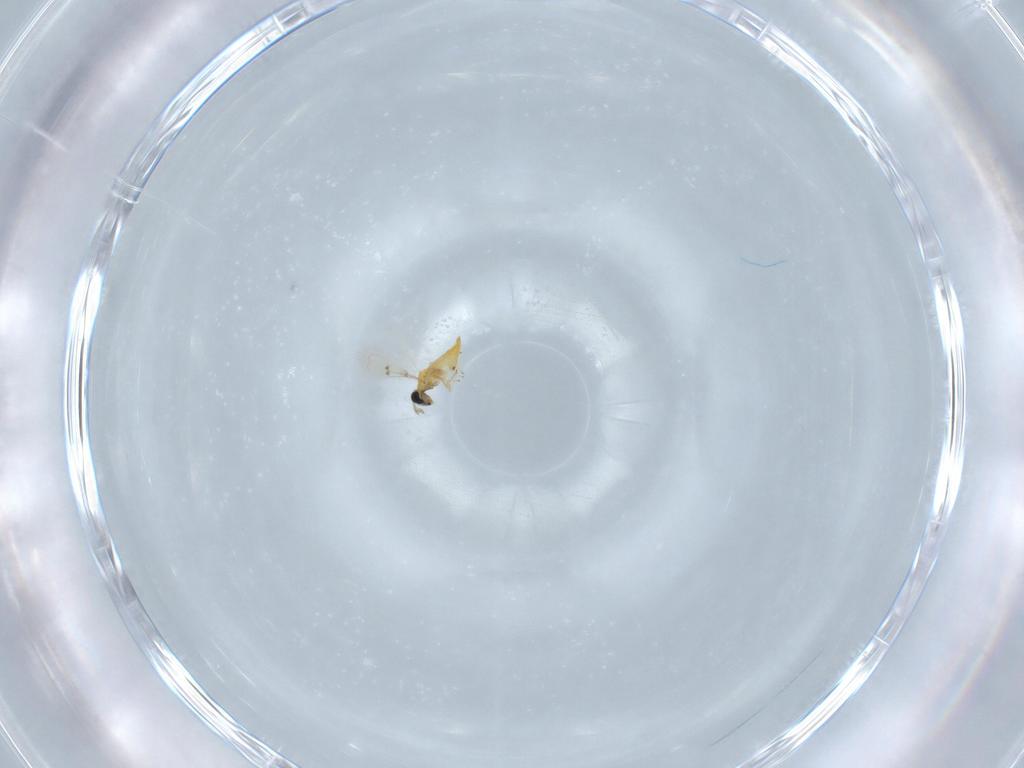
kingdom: Animalia
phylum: Arthropoda
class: Insecta
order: Hymenoptera
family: Trichogrammatidae
